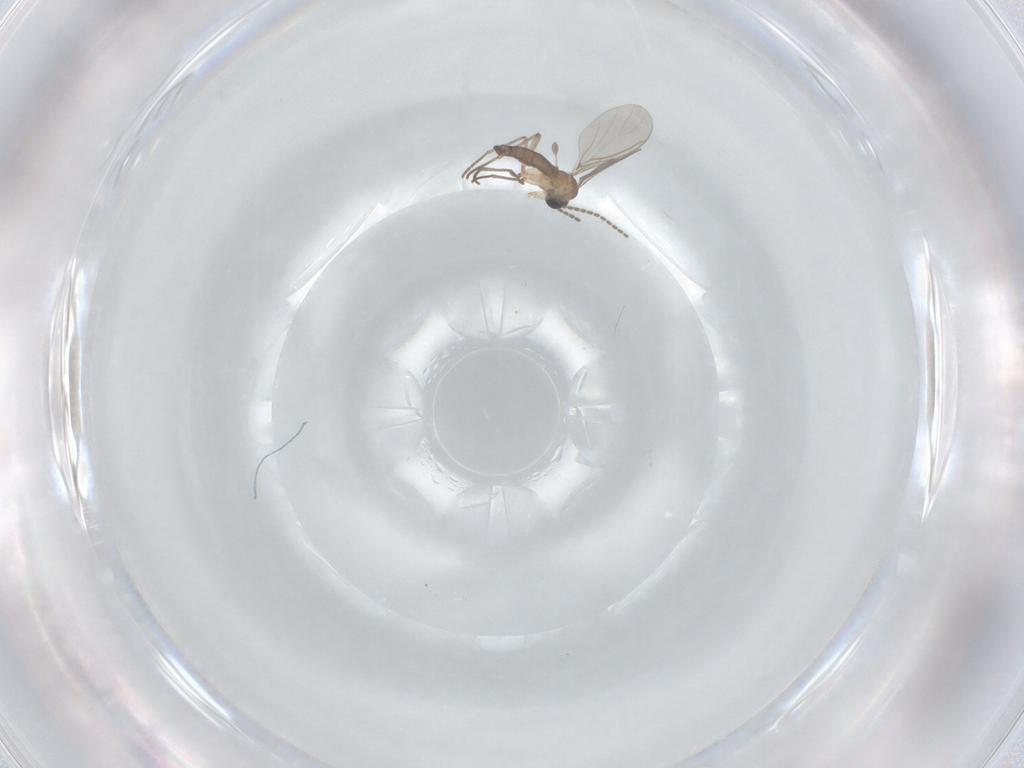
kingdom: Animalia
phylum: Arthropoda
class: Insecta
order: Diptera
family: Sciaridae
